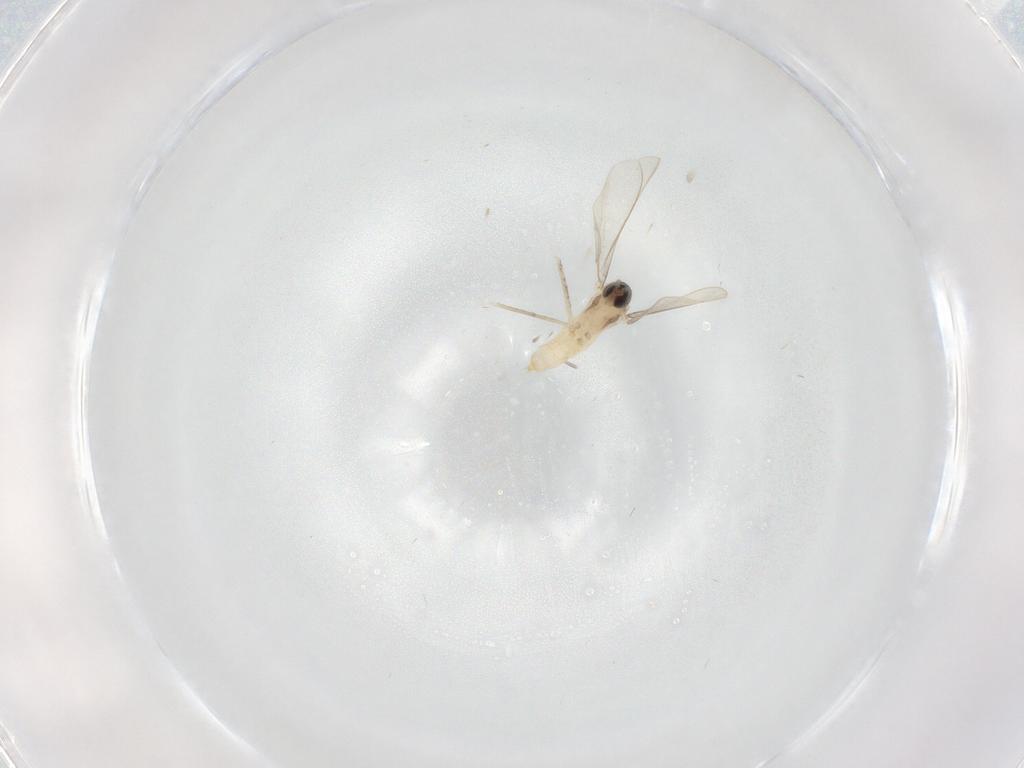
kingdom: Animalia
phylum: Arthropoda
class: Insecta
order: Diptera
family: Cecidomyiidae
